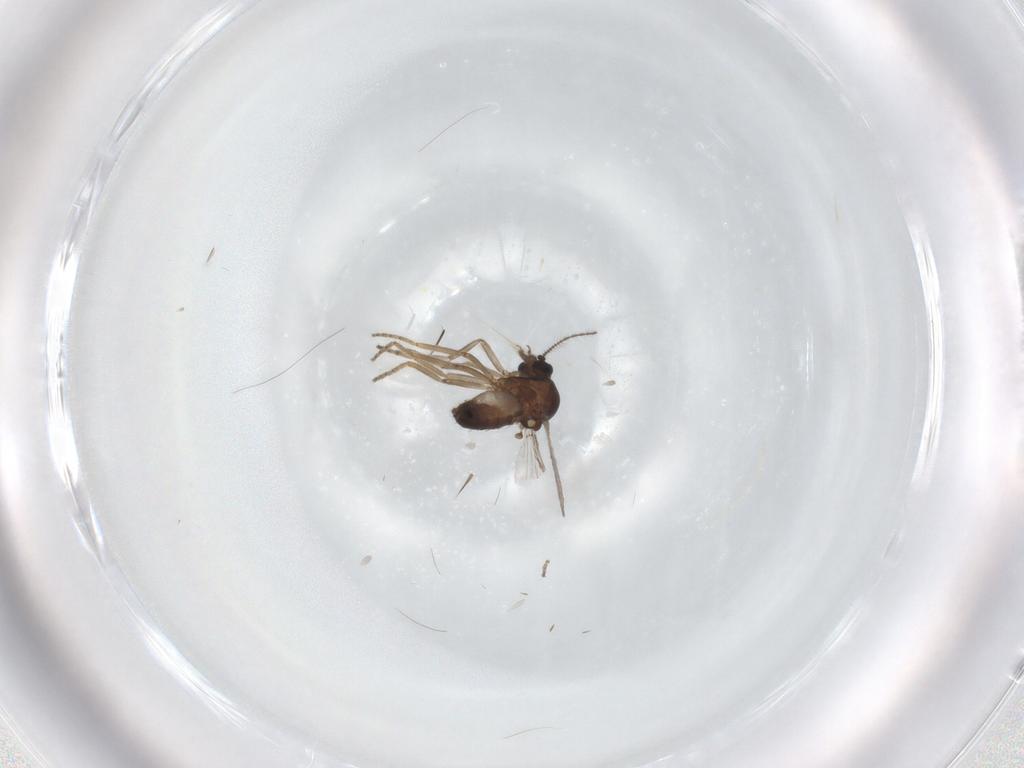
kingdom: Animalia
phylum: Arthropoda
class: Insecta
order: Diptera
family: Ceratopogonidae
